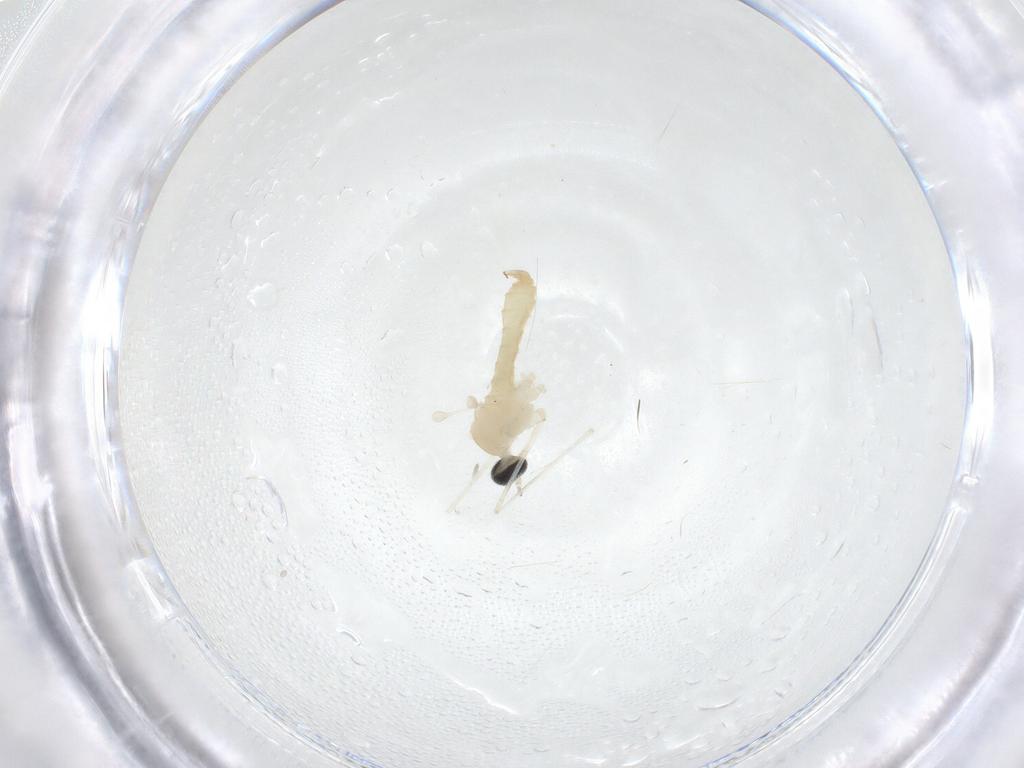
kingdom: Animalia
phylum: Arthropoda
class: Insecta
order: Diptera
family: Cecidomyiidae
